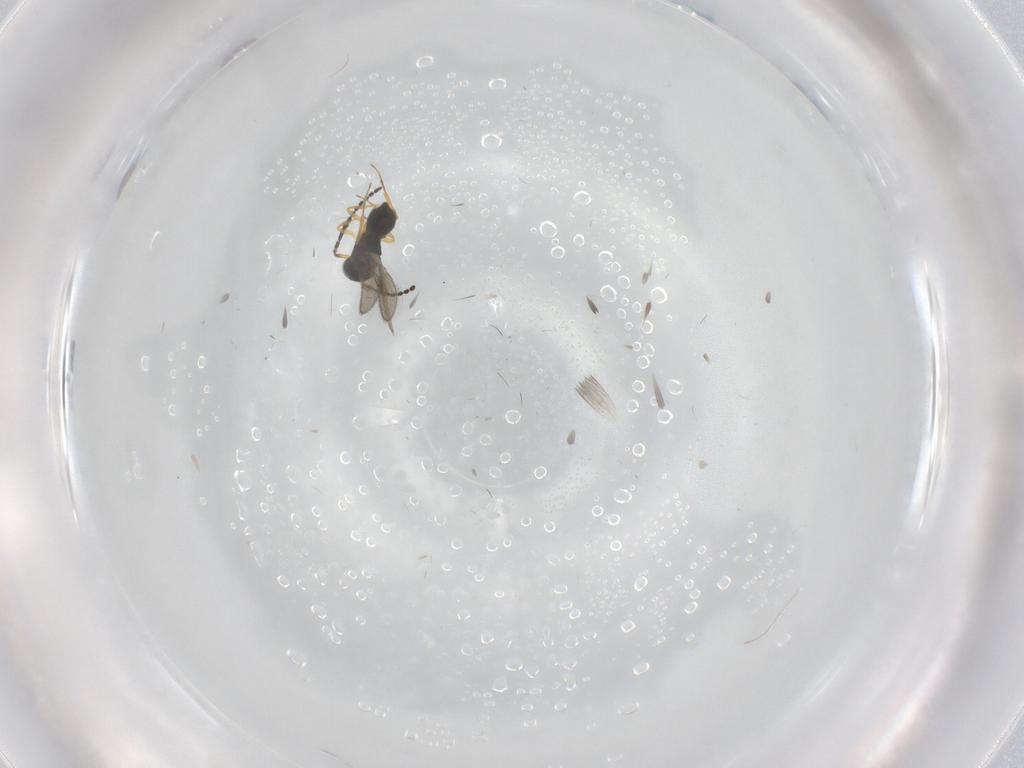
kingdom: Animalia
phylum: Arthropoda
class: Insecta
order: Hymenoptera
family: Scelionidae
